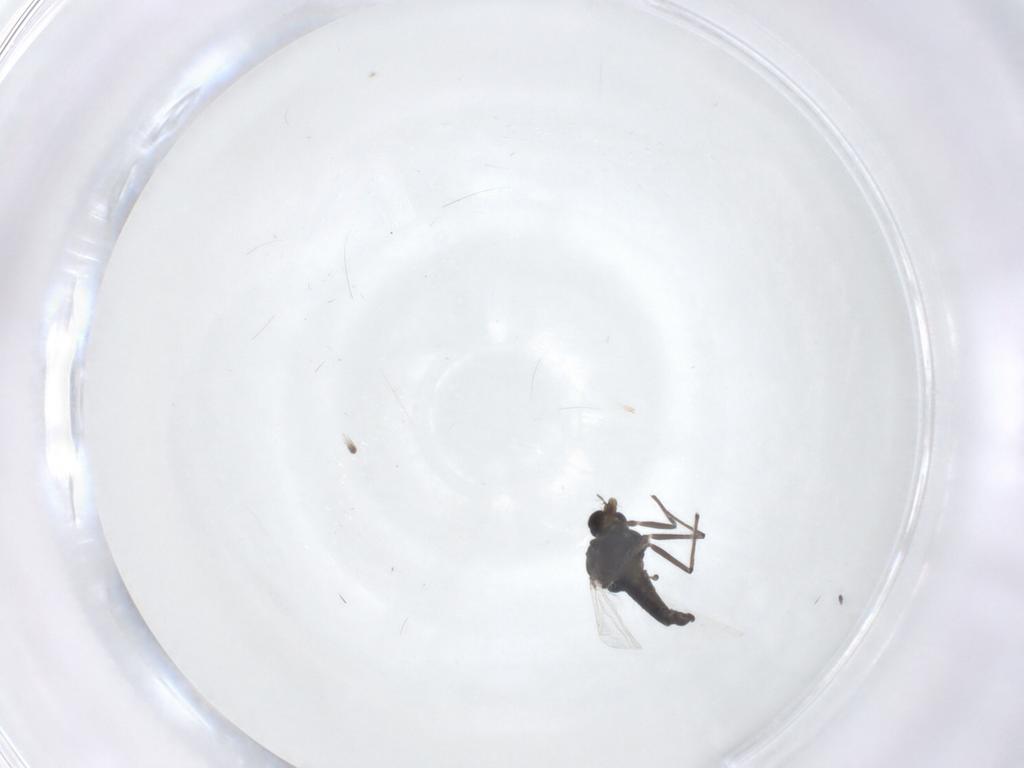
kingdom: Animalia
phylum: Arthropoda
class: Insecta
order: Diptera
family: Chironomidae
